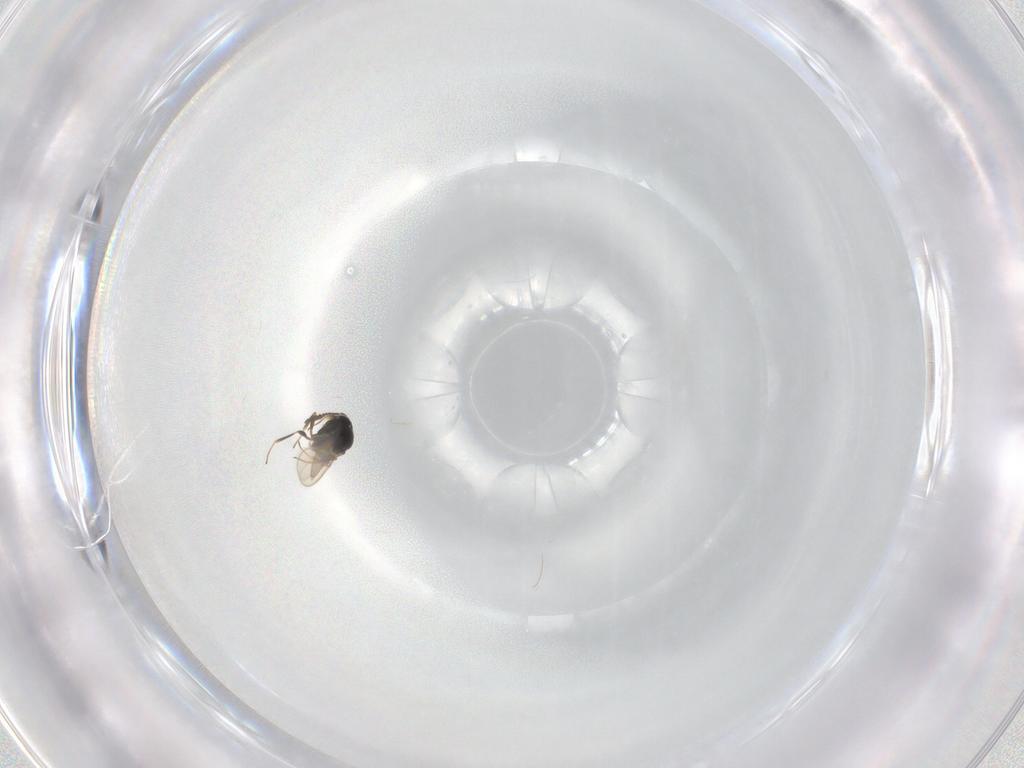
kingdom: Animalia
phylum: Arthropoda
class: Insecta
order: Hymenoptera
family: Scelionidae
